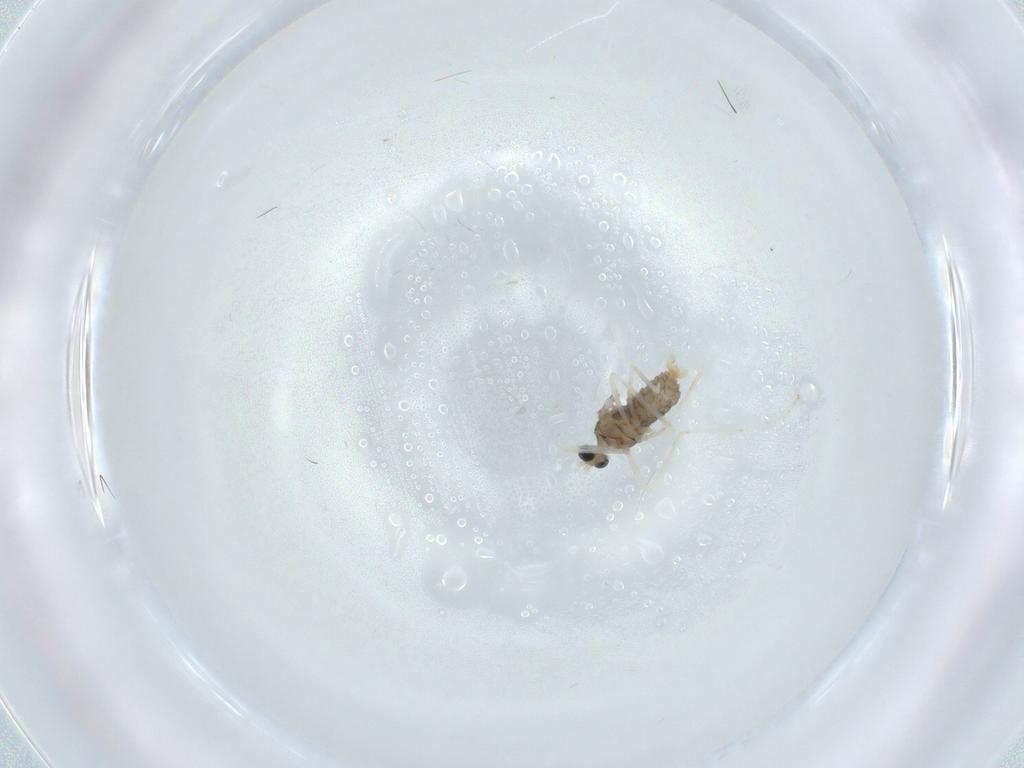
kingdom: Animalia
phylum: Arthropoda
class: Insecta
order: Diptera
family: Cecidomyiidae
